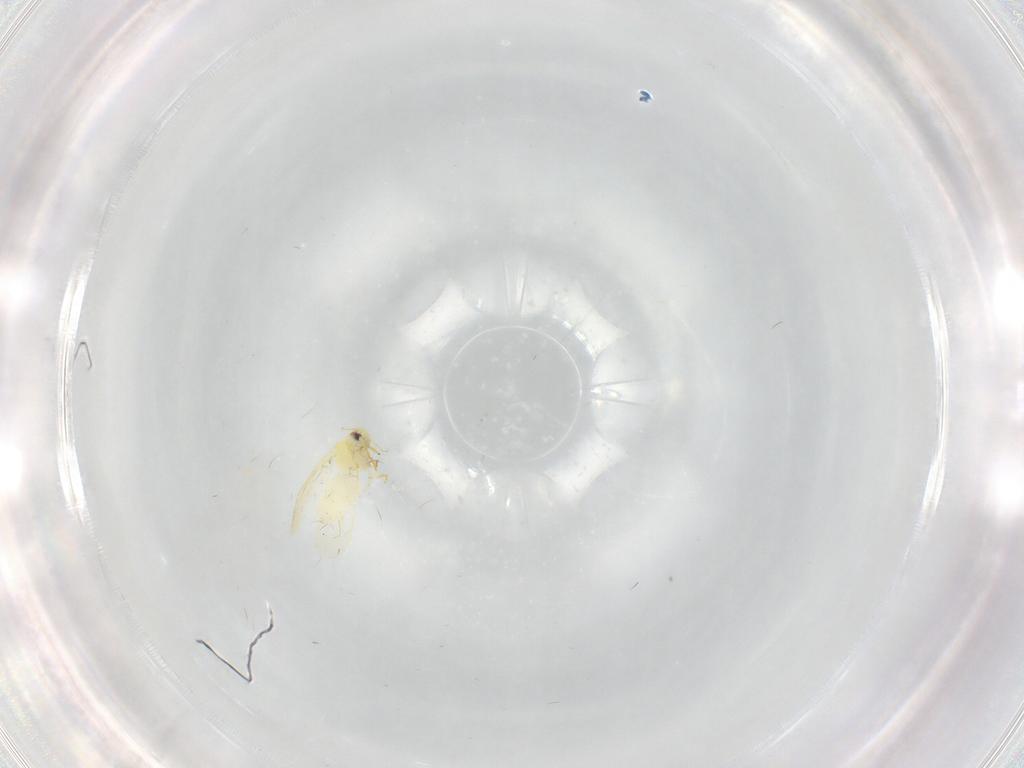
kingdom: Animalia
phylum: Arthropoda
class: Insecta
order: Hemiptera
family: Aleyrodidae
